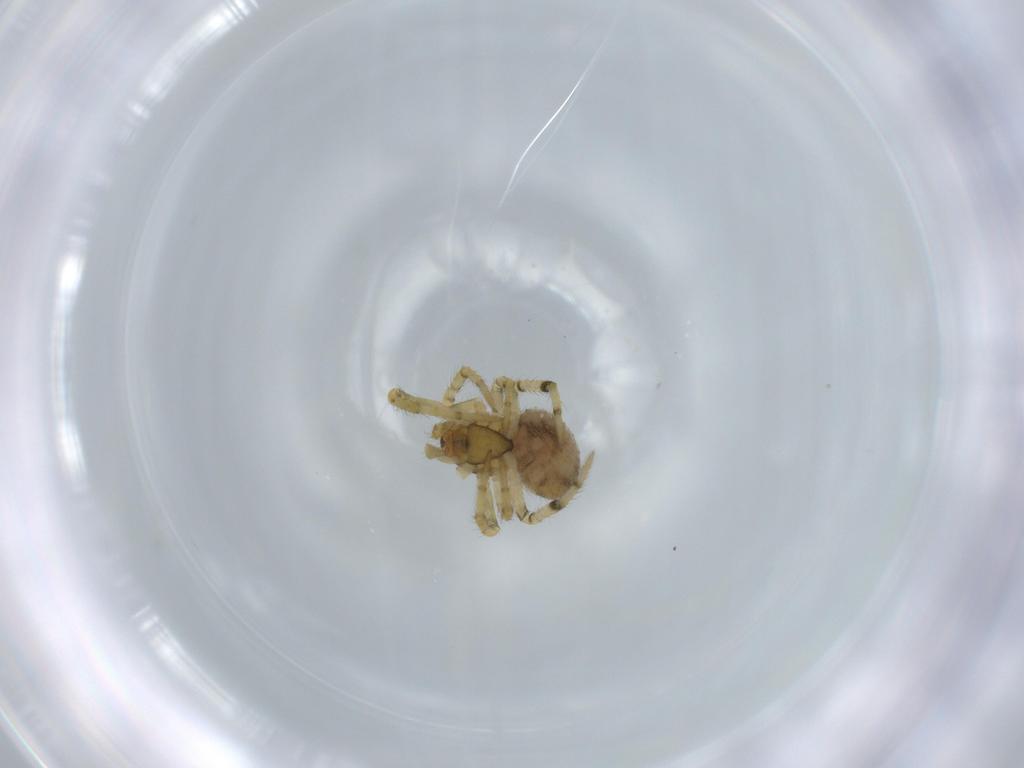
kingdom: Animalia
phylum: Arthropoda
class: Arachnida
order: Araneae
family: Theridiidae
